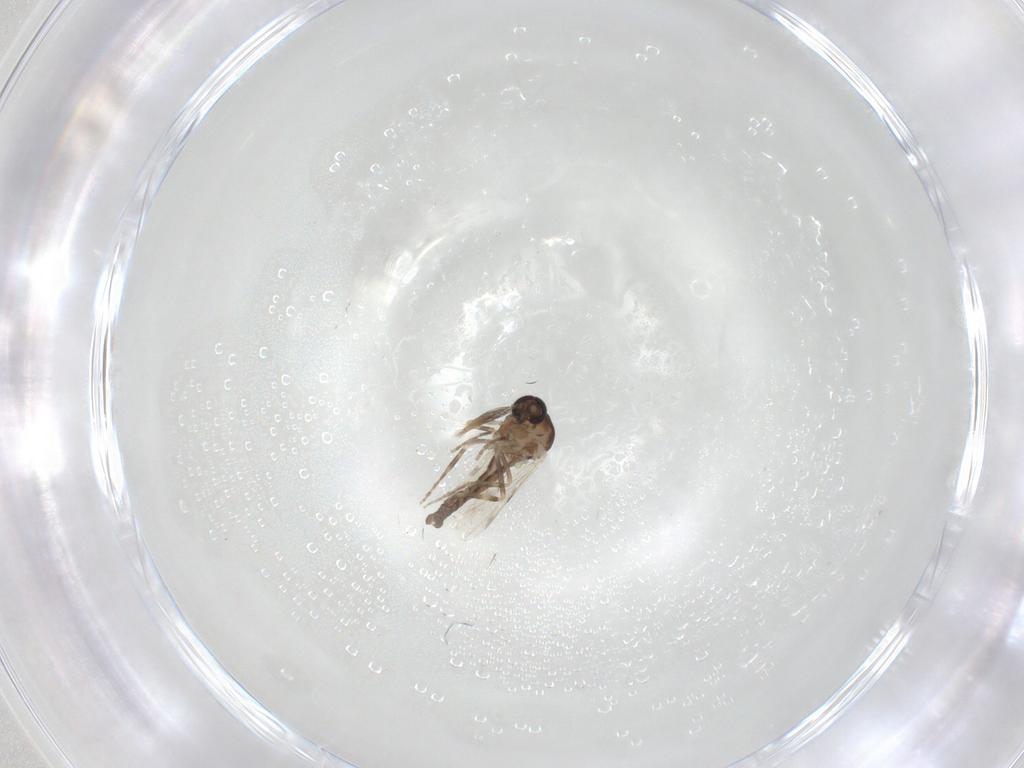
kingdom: Animalia
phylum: Arthropoda
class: Insecta
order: Diptera
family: Ceratopogonidae
